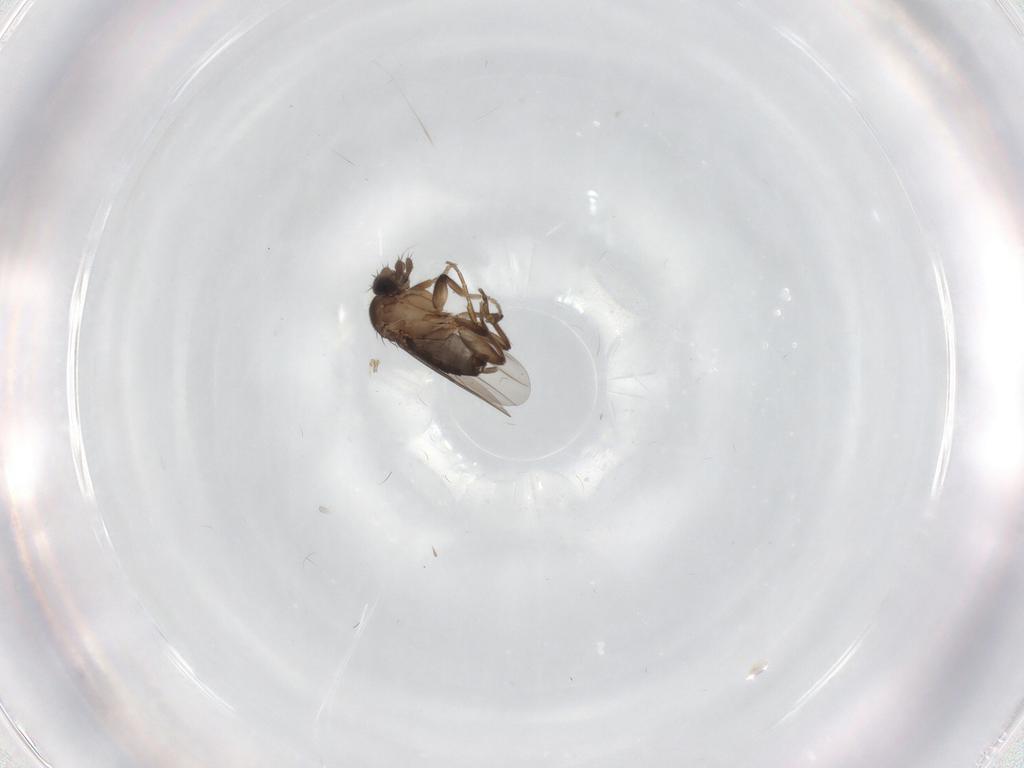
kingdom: Animalia
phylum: Arthropoda
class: Insecta
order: Diptera
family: Phoridae
